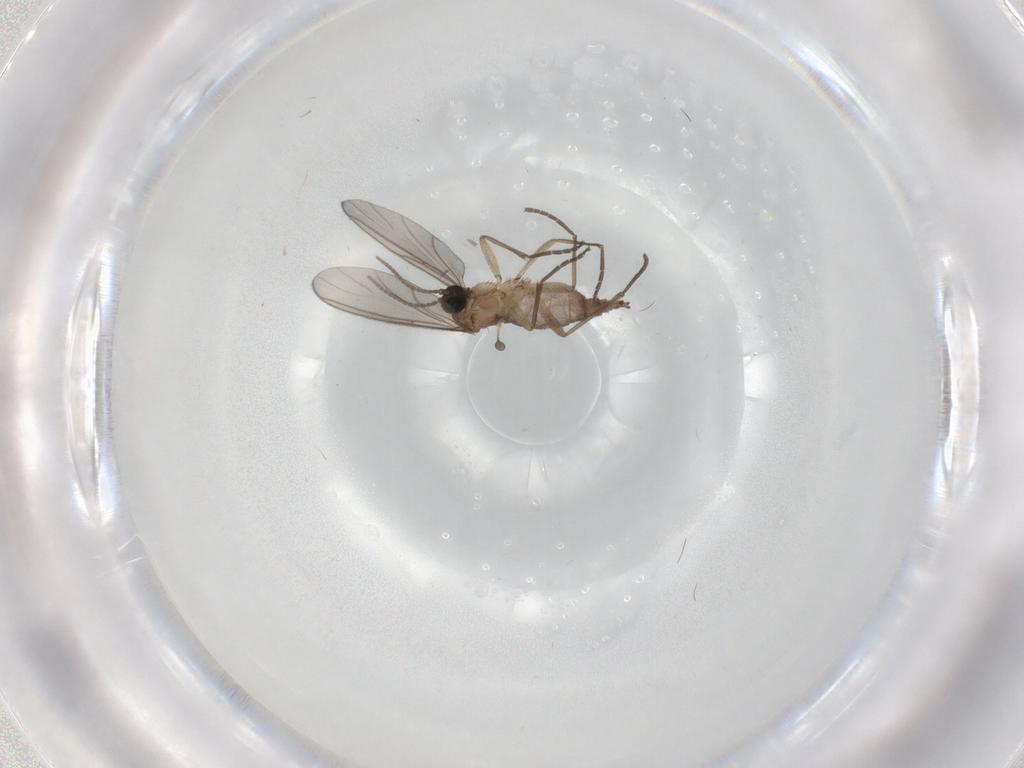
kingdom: Animalia
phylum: Arthropoda
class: Insecta
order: Diptera
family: Sciaridae
